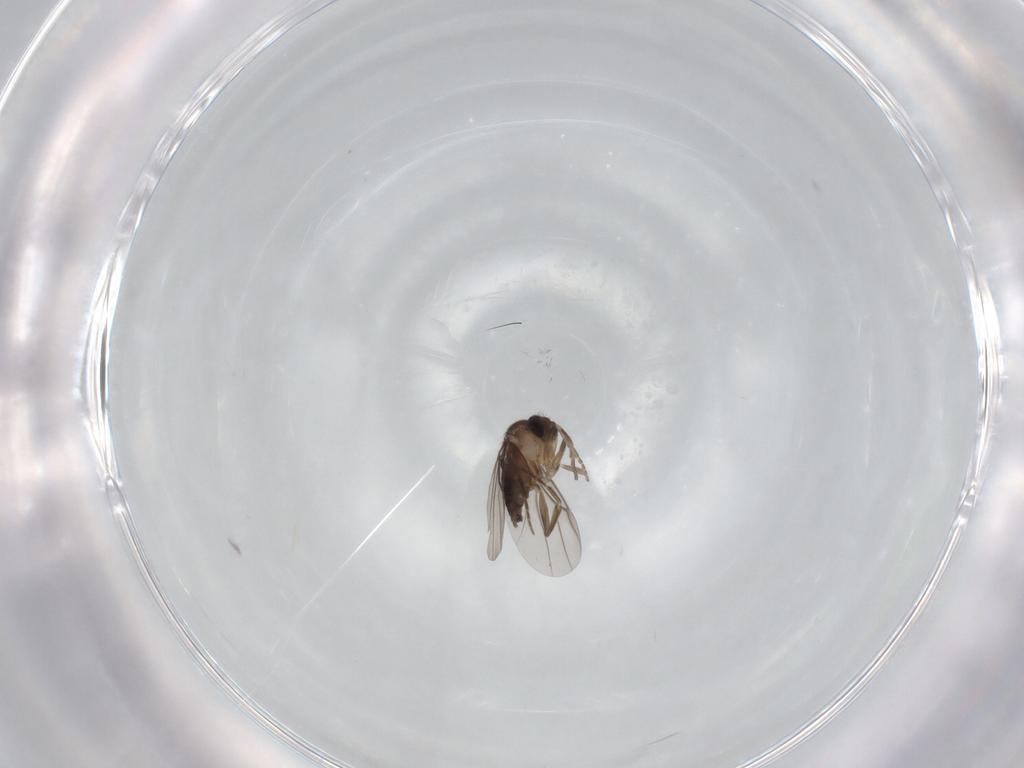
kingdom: Animalia
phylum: Arthropoda
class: Insecta
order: Diptera
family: Phoridae
